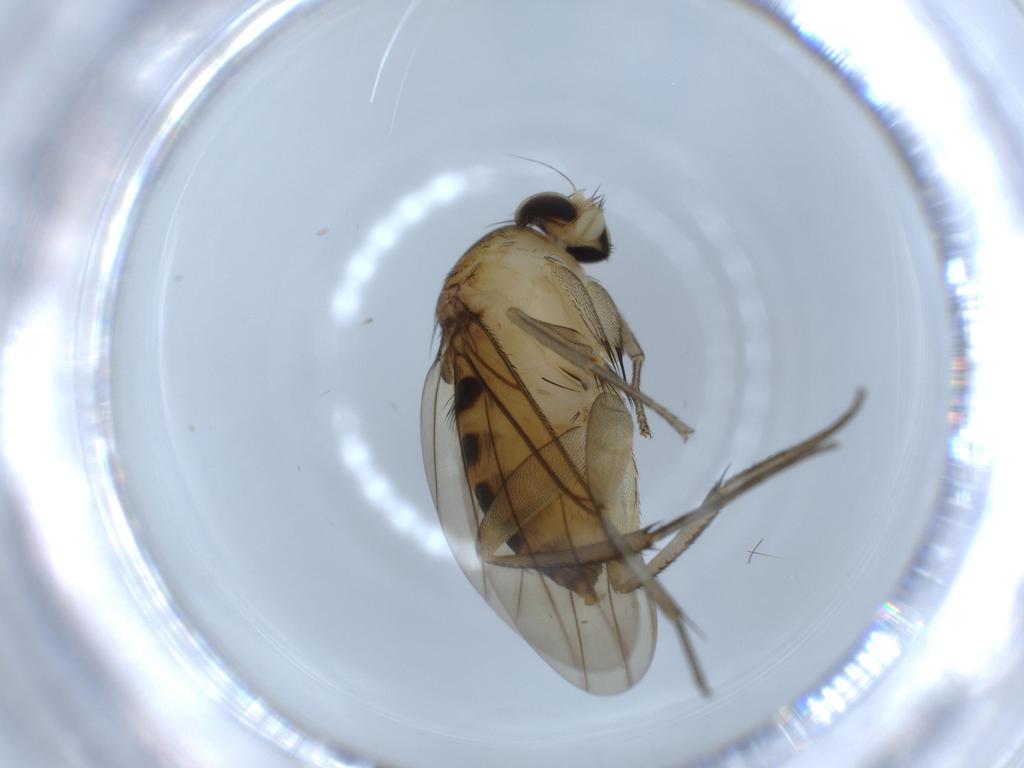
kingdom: Animalia
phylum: Arthropoda
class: Insecta
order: Diptera
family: Phoridae
